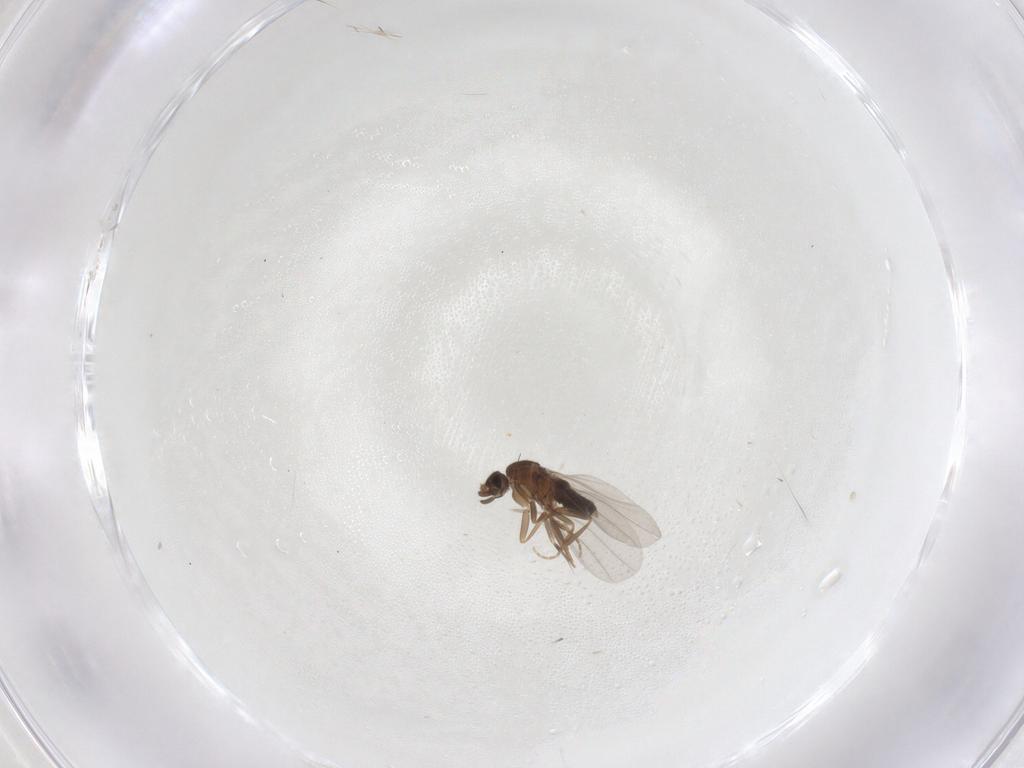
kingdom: Animalia
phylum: Arthropoda
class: Insecta
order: Diptera
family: Phoridae
